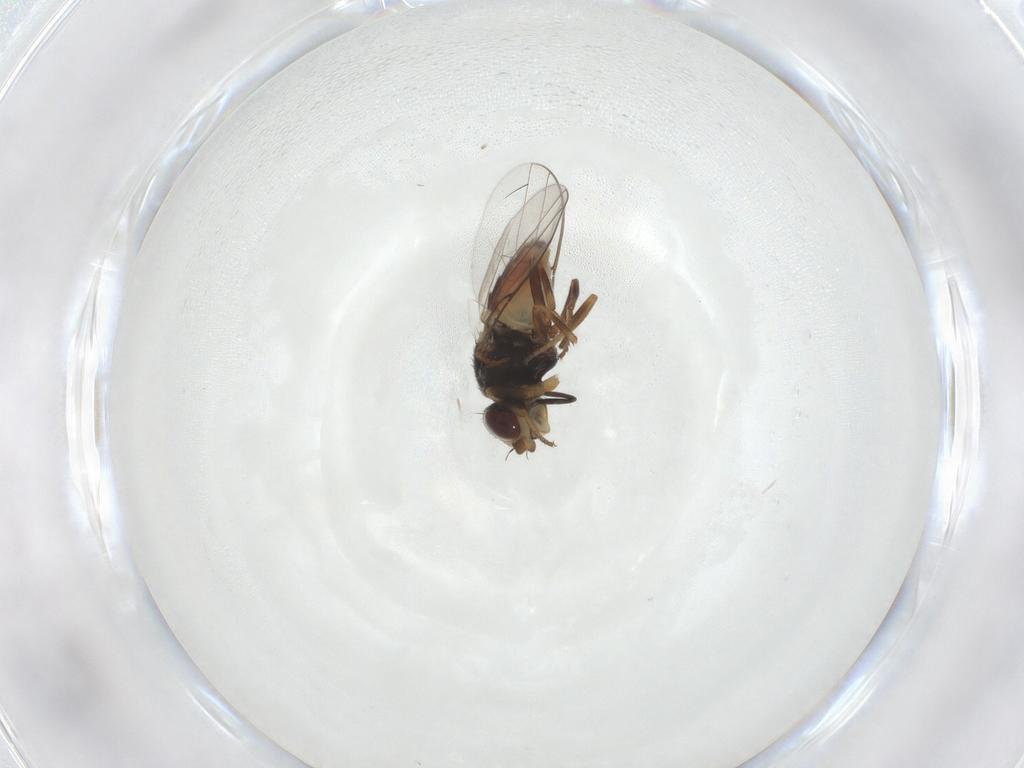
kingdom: Animalia
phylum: Arthropoda
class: Insecta
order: Diptera
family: Chloropidae
